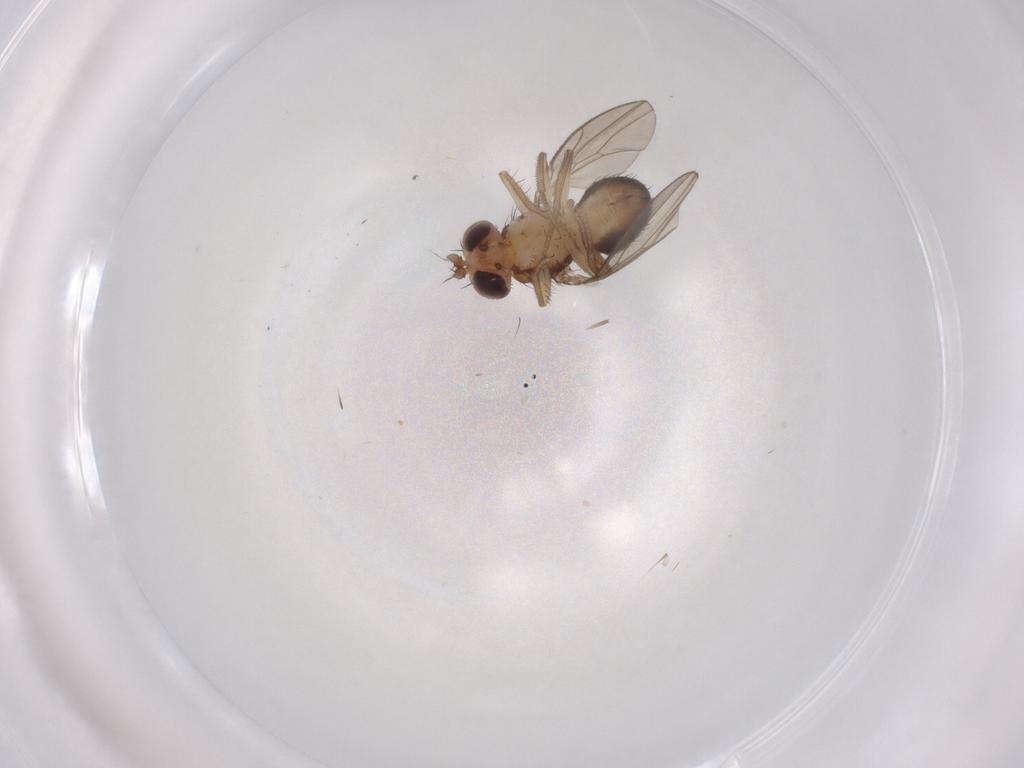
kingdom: Animalia
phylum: Arthropoda
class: Insecta
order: Diptera
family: Drosophilidae
